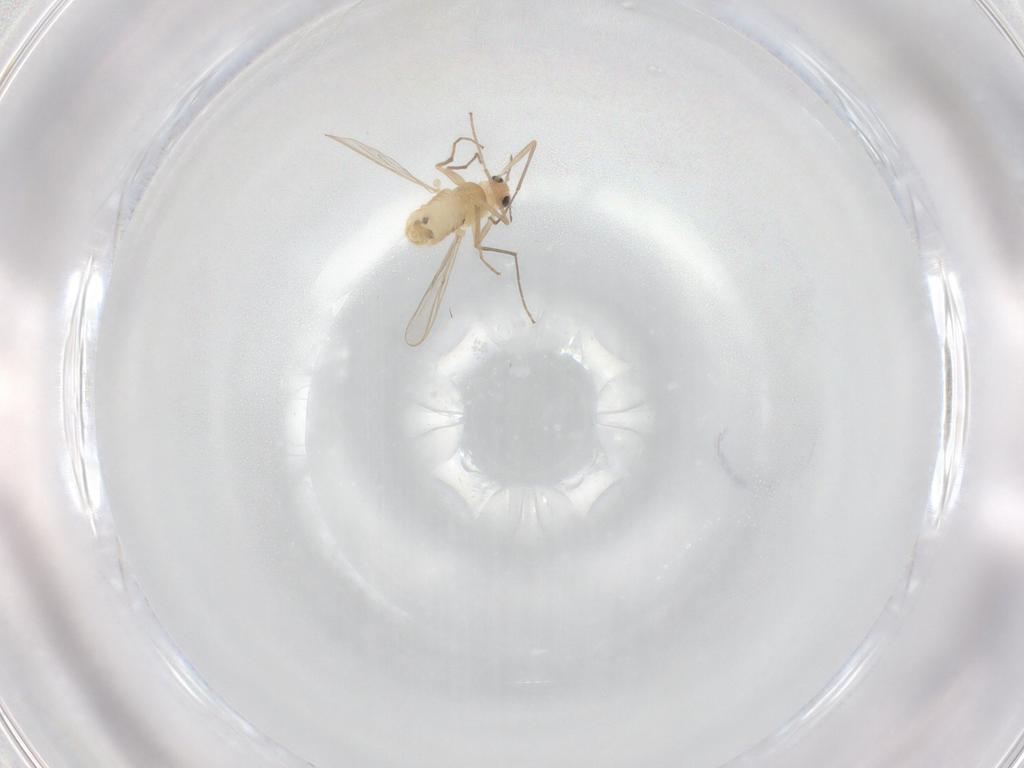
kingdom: Animalia
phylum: Arthropoda
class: Insecta
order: Diptera
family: Chironomidae
